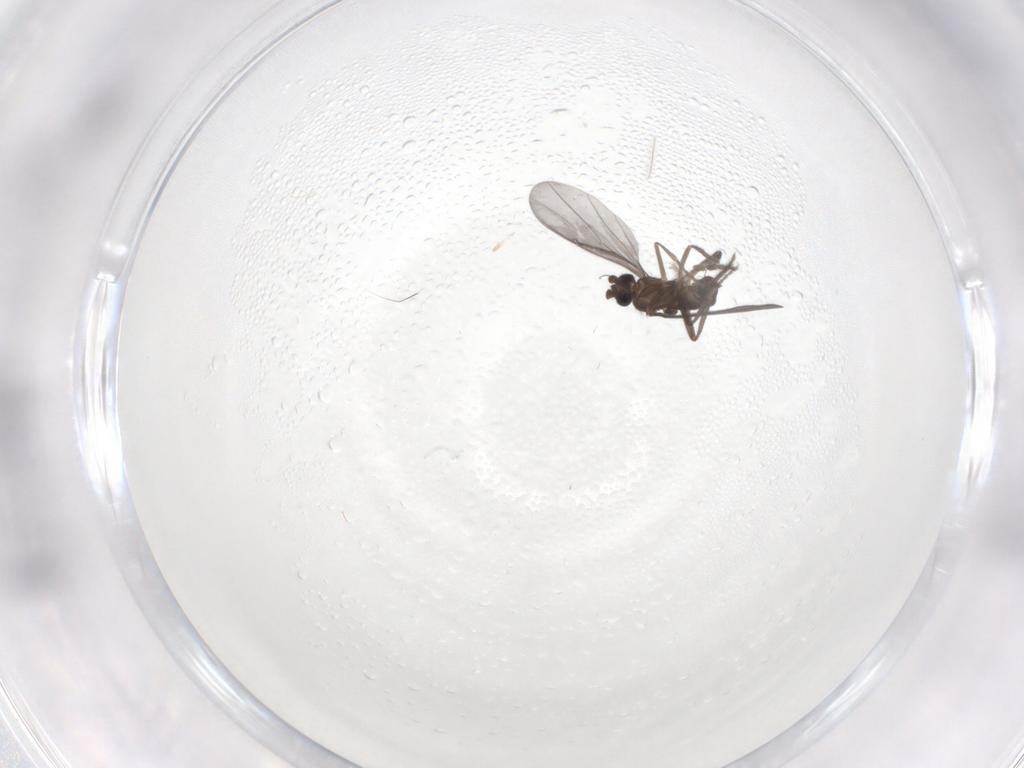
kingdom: Animalia
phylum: Arthropoda
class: Insecta
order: Diptera
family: Phoridae
